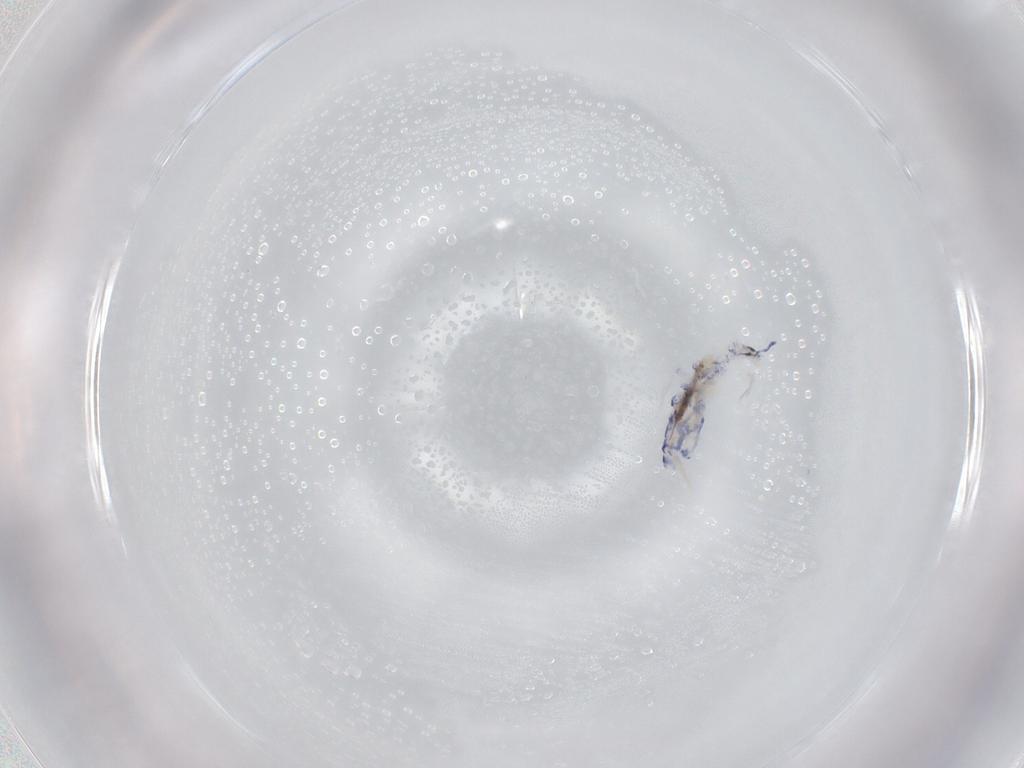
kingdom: Animalia
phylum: Arthropoda
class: Collembola
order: Entomobryomorpha
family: Entomobryidae
